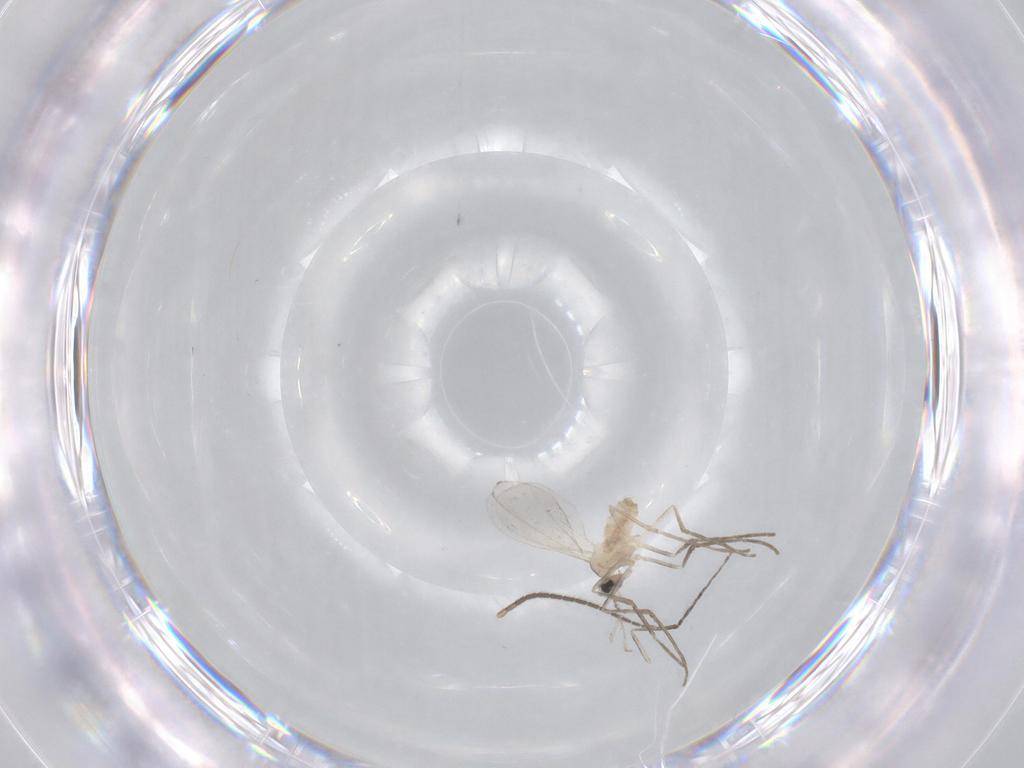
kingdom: Animalia
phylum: Arthropoda
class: Insecta
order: Diptera
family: Sciaridae
